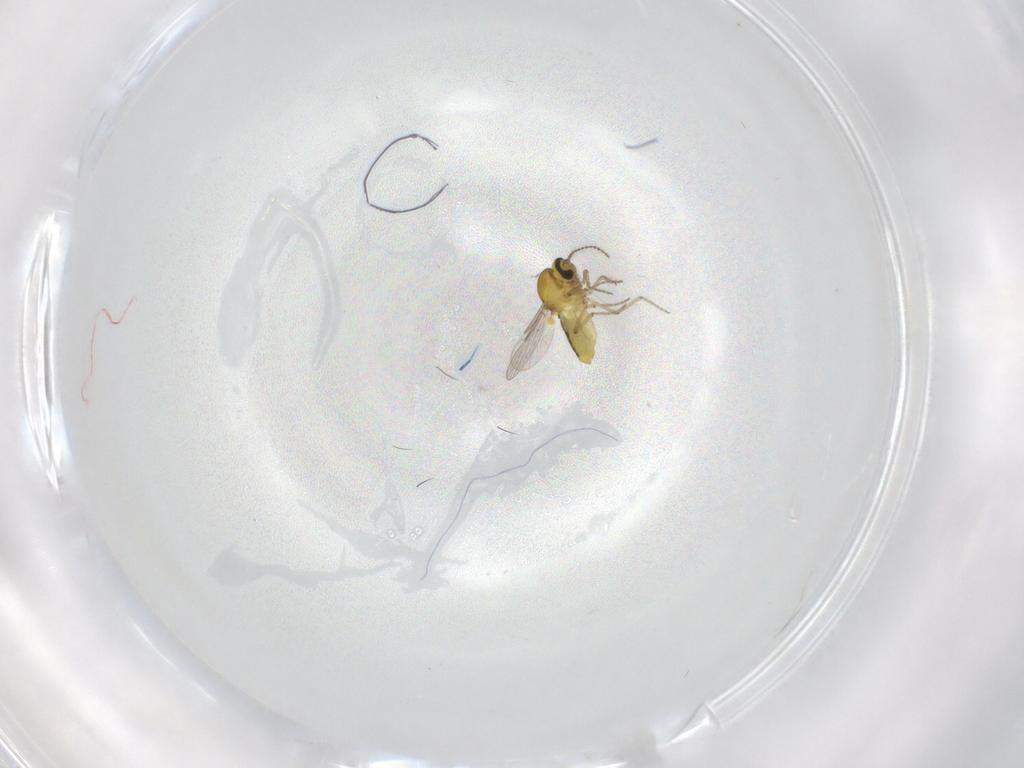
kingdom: Animalia
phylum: Arthropoda
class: Insecta
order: Diptera
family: Ceratopogonidae
